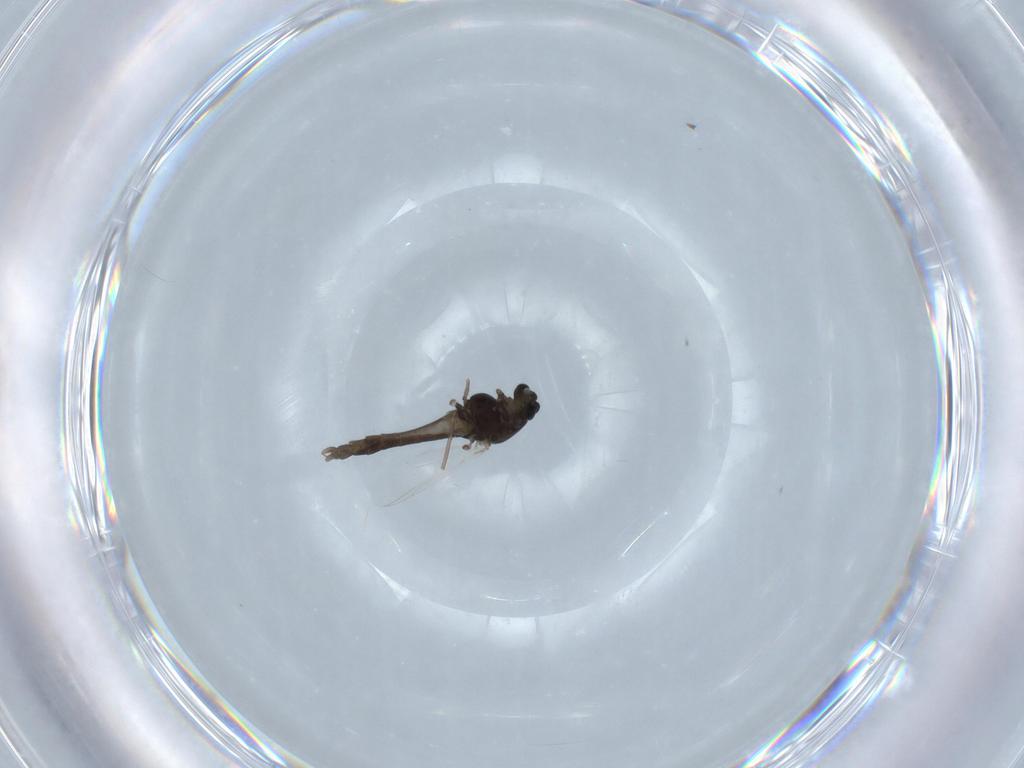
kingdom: Animalia
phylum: Arthropoda
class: Insecta
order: Diptera
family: Chironomidae
